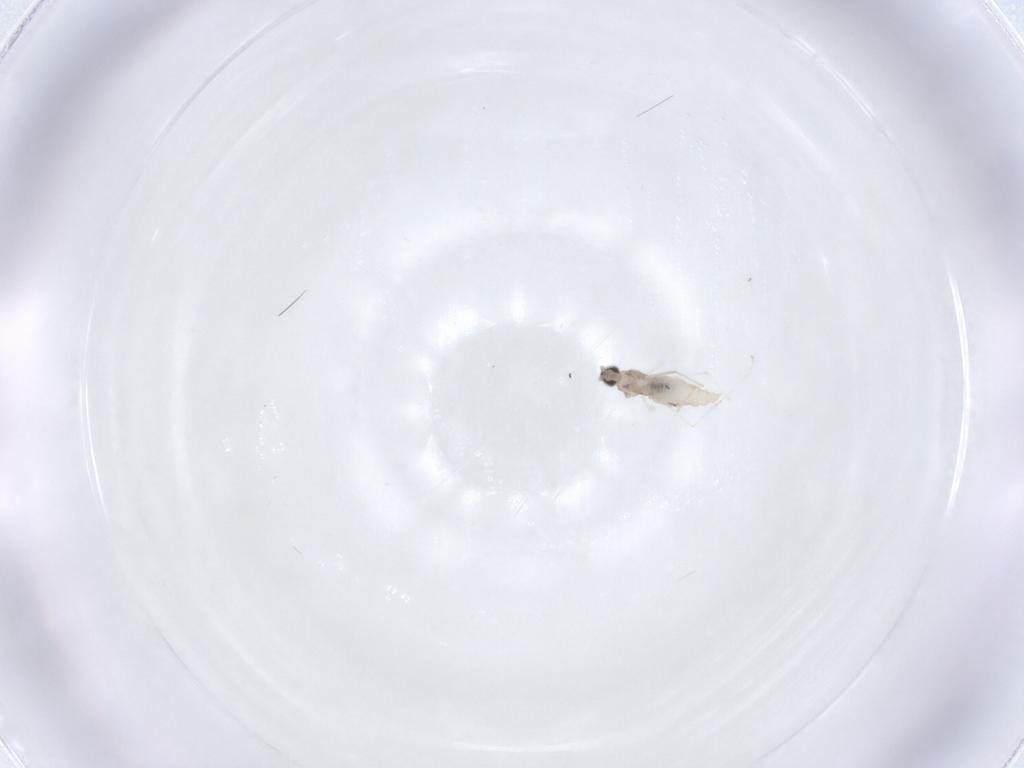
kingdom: Animalia
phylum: Arthropoda
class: Insecta
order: Diptera
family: Cecidomyiidae
